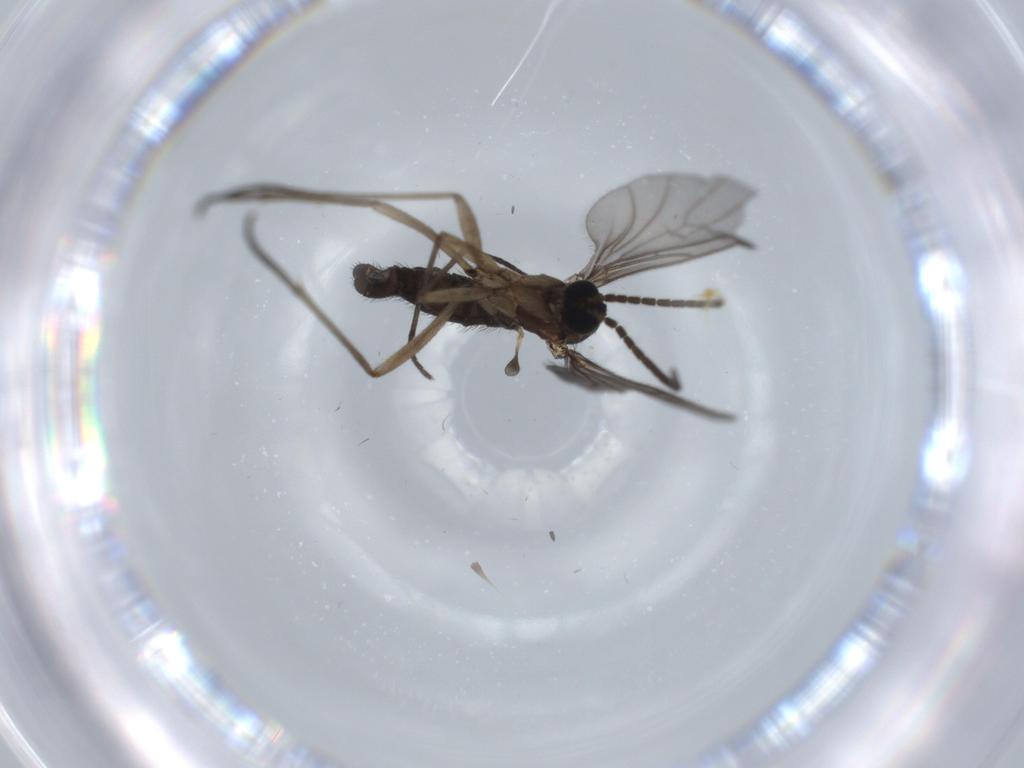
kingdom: Animalia
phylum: Arthropoda
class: Insecta
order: Diptera
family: Sciaridae
